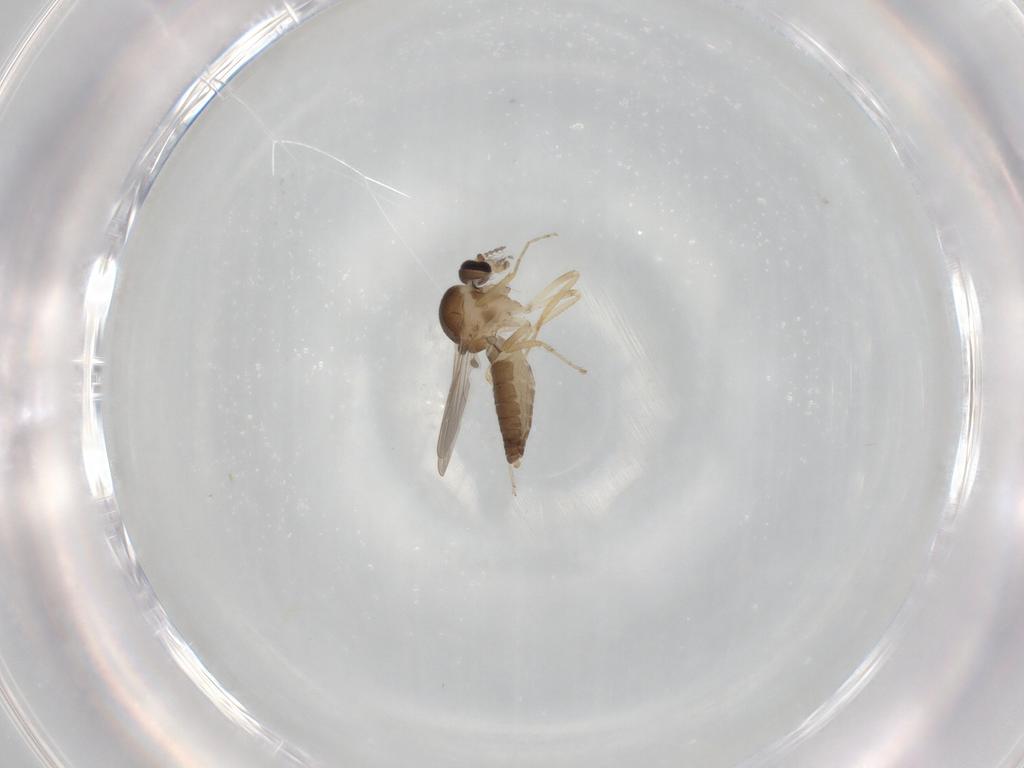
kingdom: Animalia
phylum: Arthropoda
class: Insecta
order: Diptera
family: Ceratopogonidae
